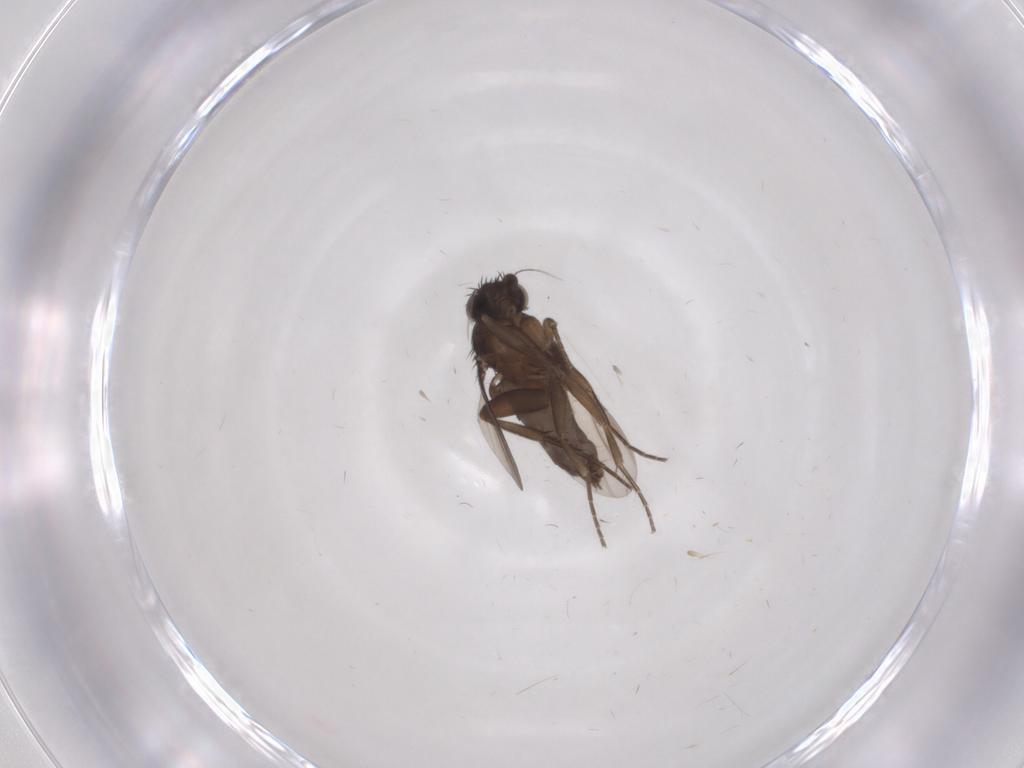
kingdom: Animalia
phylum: Arthropoda
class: Insecta
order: Diptera
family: Phoridae
